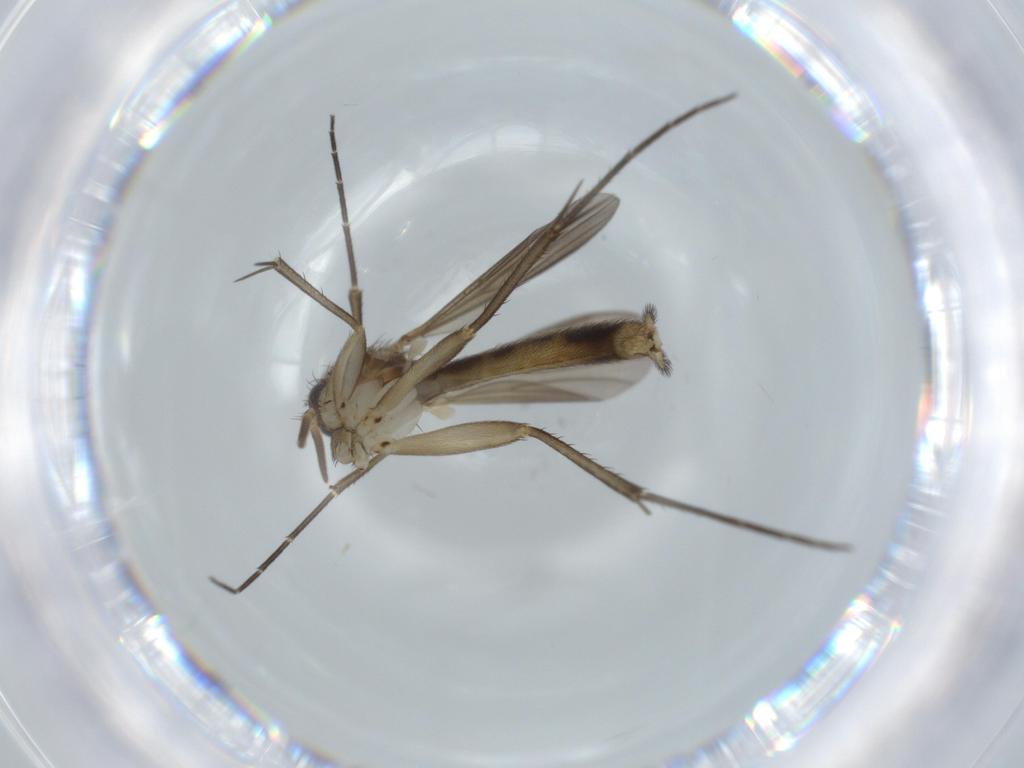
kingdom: Animalia
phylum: Arthropoda
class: Insecta
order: Diptera
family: Mycetophilidae
